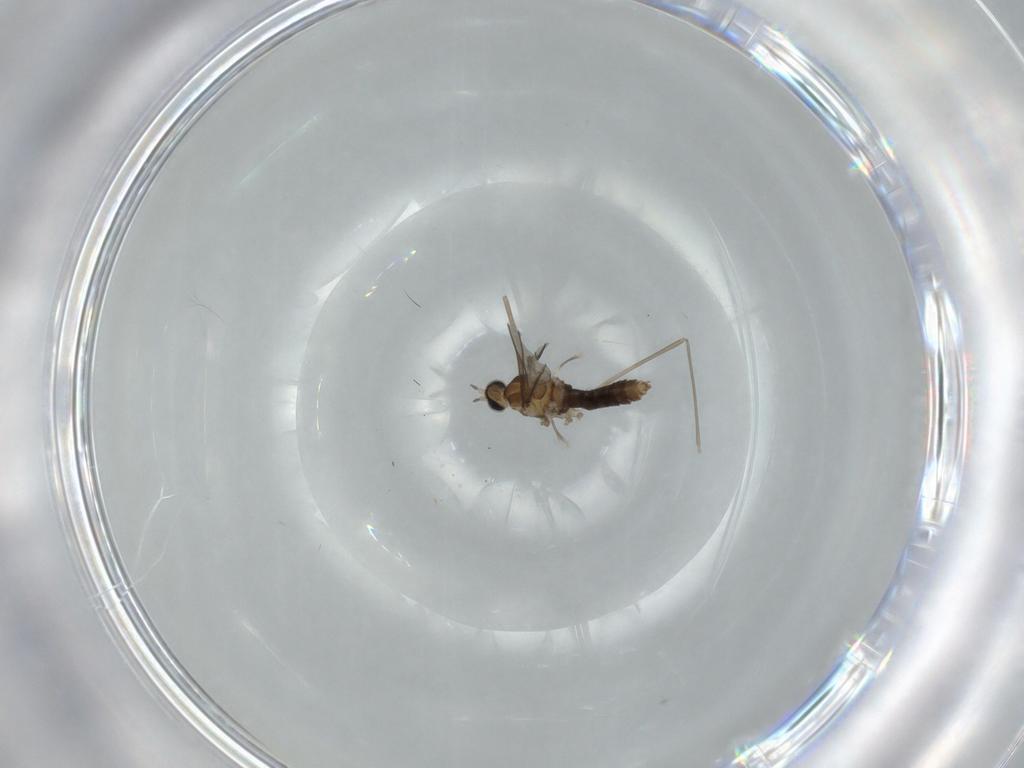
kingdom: Animalia
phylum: Arthropoda
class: Insecta
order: Diptera
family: Cecidomyiidae
